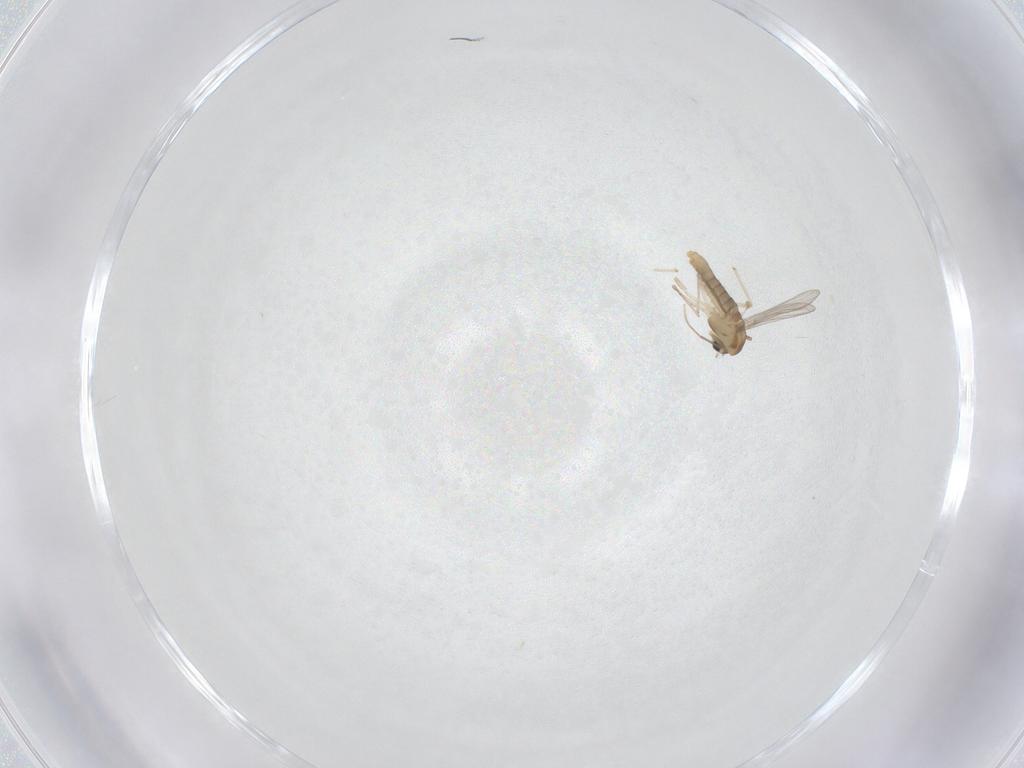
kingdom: Animalia
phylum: Arthropoda
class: Insecta
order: Diptera
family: Chironomidae
